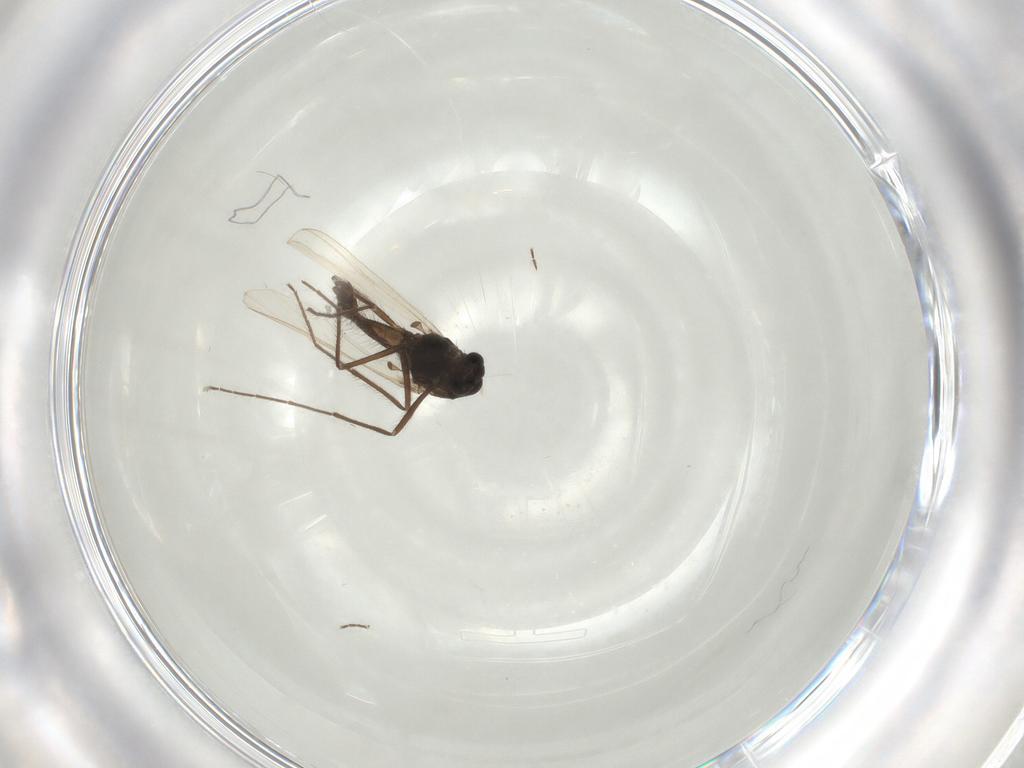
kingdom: Animalia
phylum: Arthropoda
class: Insecta
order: Diptera
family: Chironomidae
